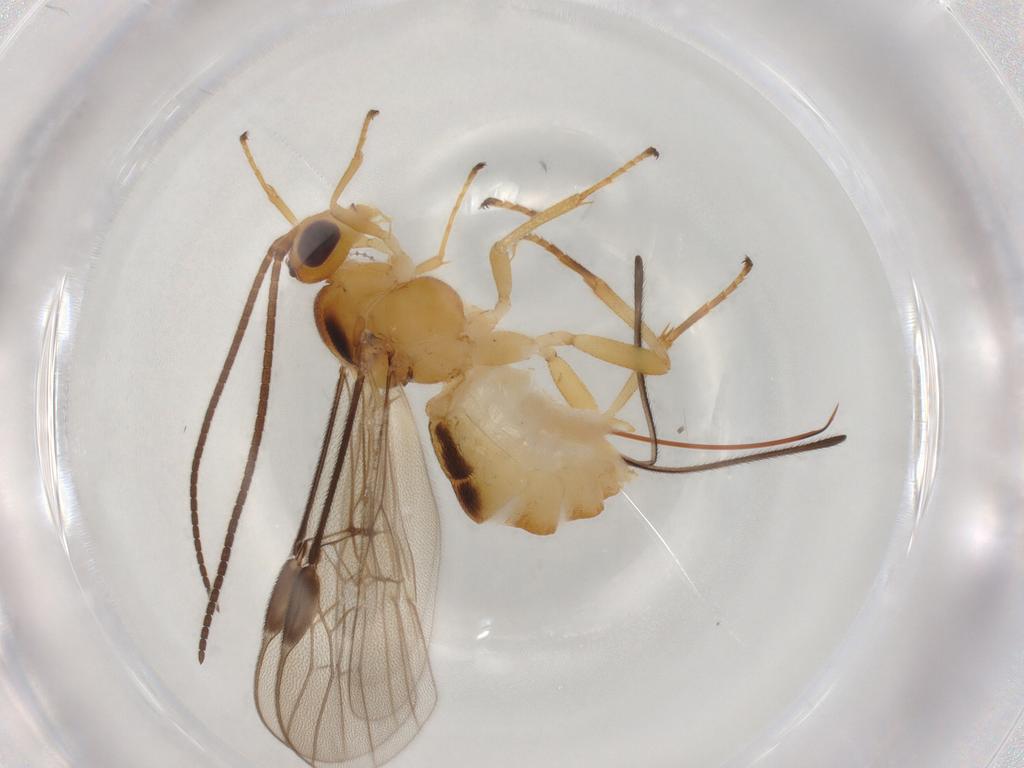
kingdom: Animalia
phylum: Arthropoda
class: Insecta
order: Hymenoptera
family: Braconidae
